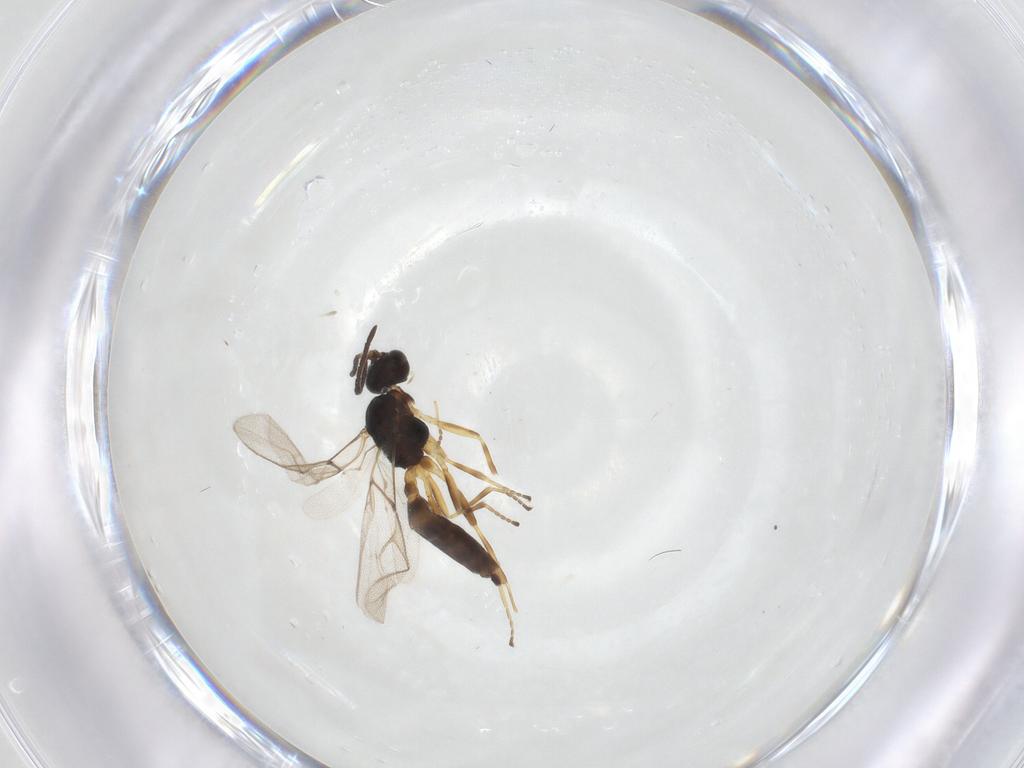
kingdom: Animalia
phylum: Arthropoda
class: Insecta
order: Hymenoptera
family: Braconidae
